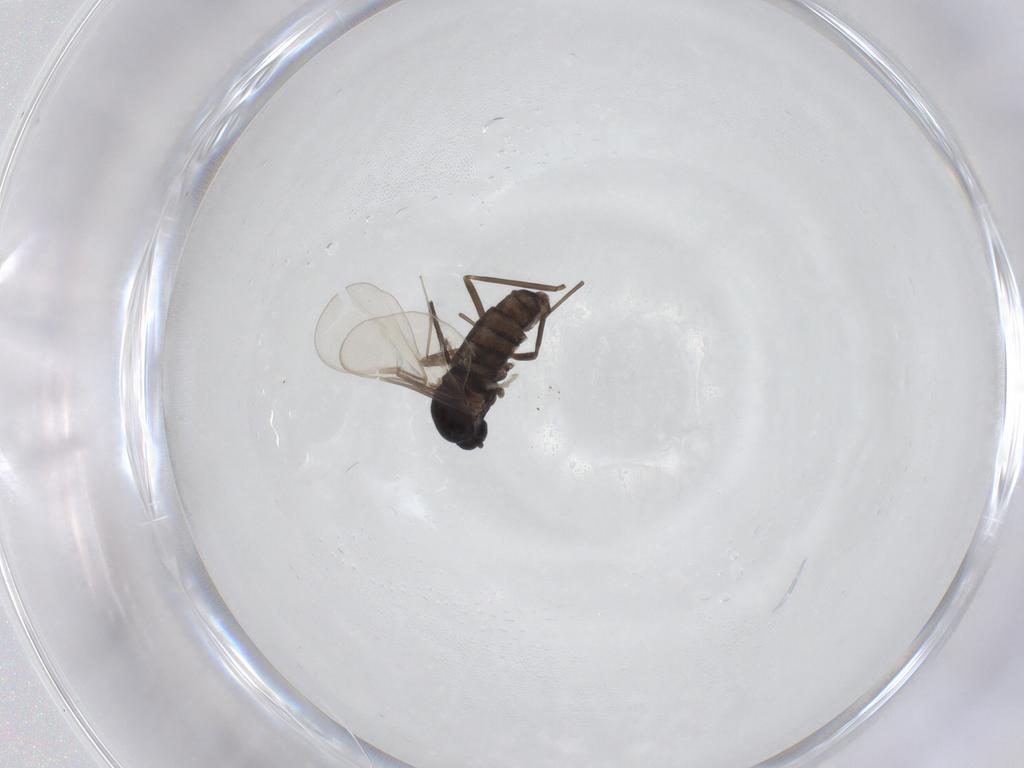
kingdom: Animalia
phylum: Arthropoda
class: Insecta
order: Diptera
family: Cecidomyiidae
